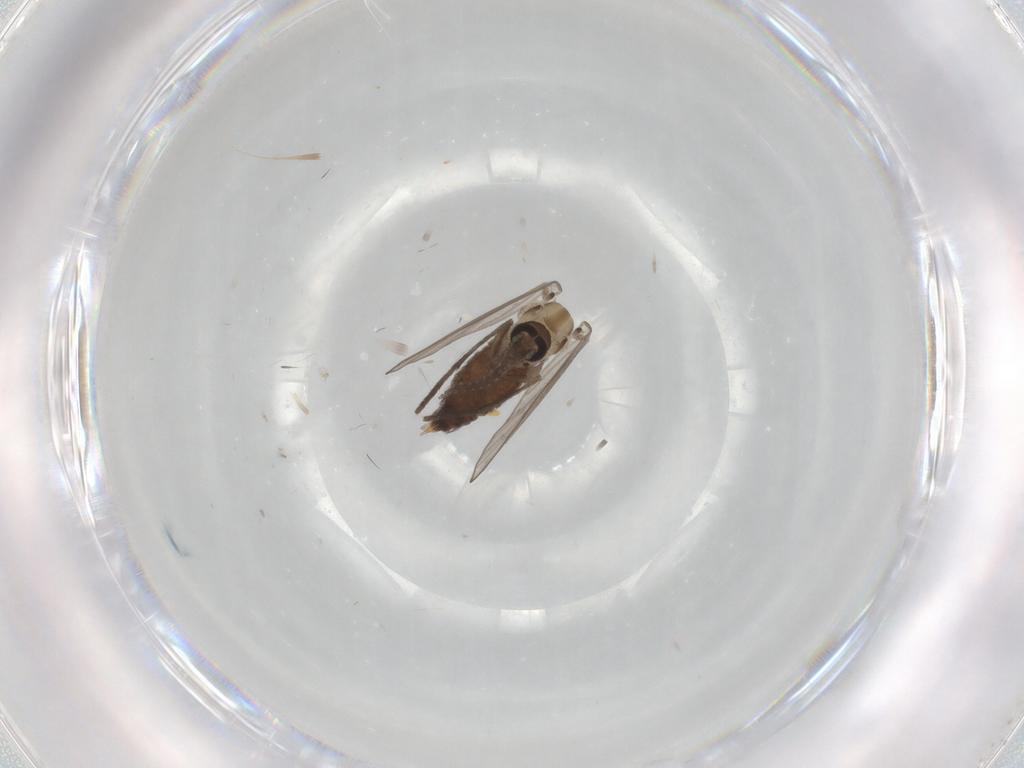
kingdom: Animalia
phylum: Arthropoda
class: Insecta
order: Diptera
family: Psychodidae
